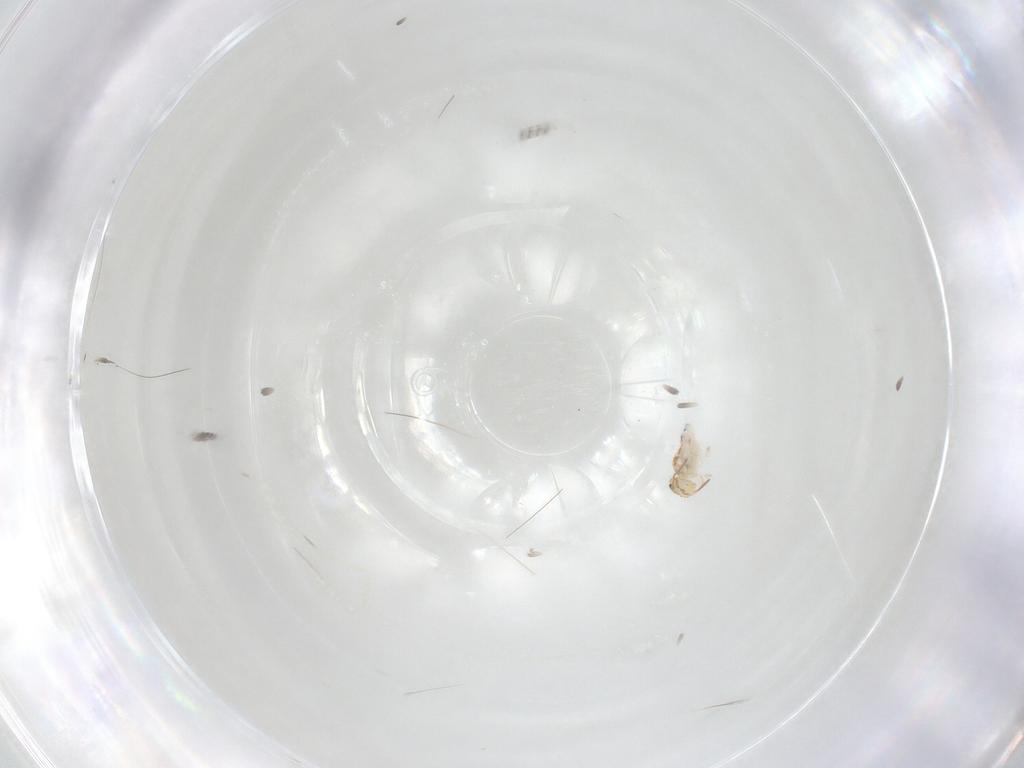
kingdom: Animalia
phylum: Arthropoda
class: Collembola
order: Symphypleona
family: Bourletiellidae
